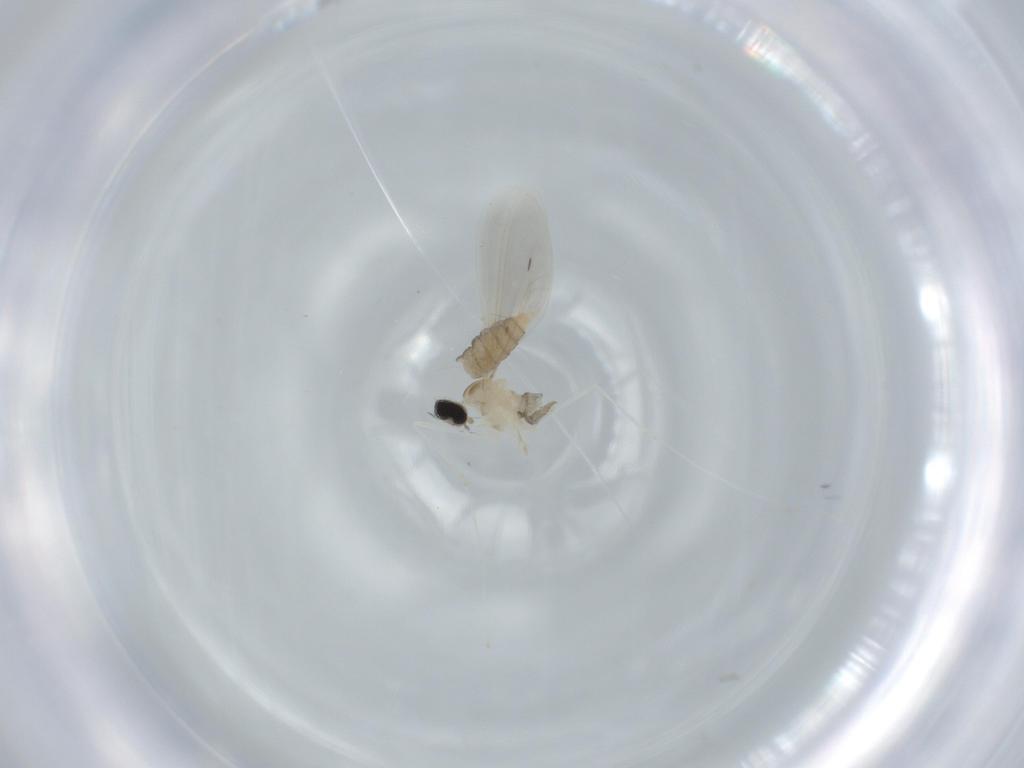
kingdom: Animalia
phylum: Arthropoda
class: Insecta
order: Diptera
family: Cecidomyiidae
